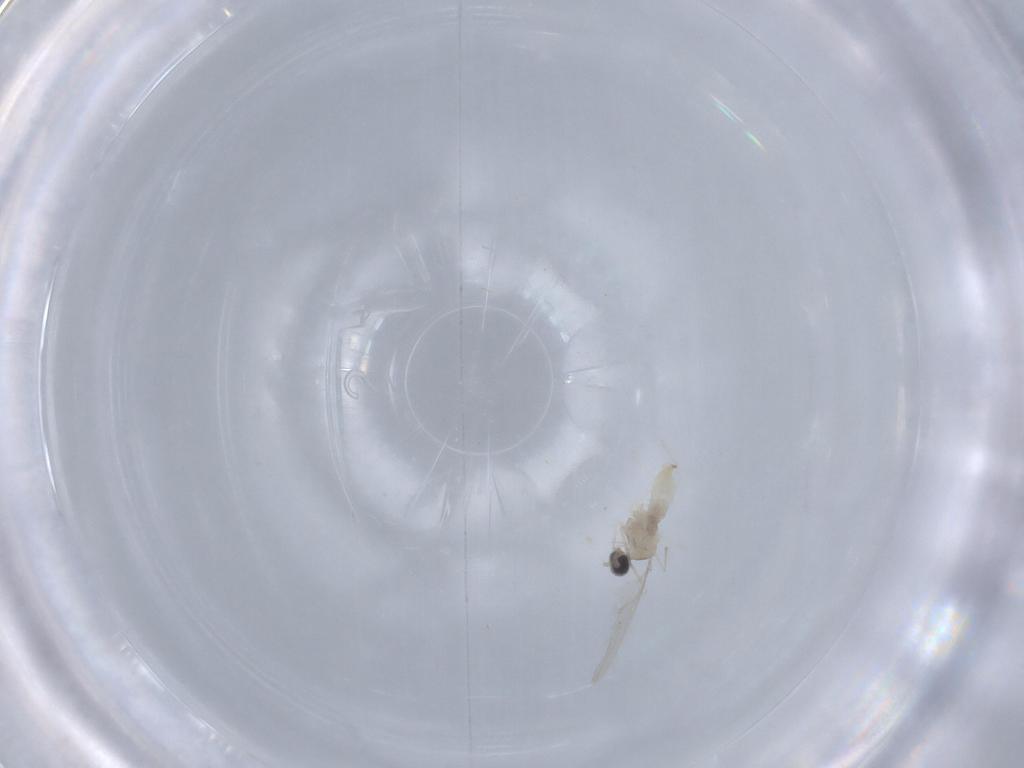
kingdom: Animalia
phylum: Arthropoda
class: Insecta
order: Diptera
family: Cecidomyiidae
